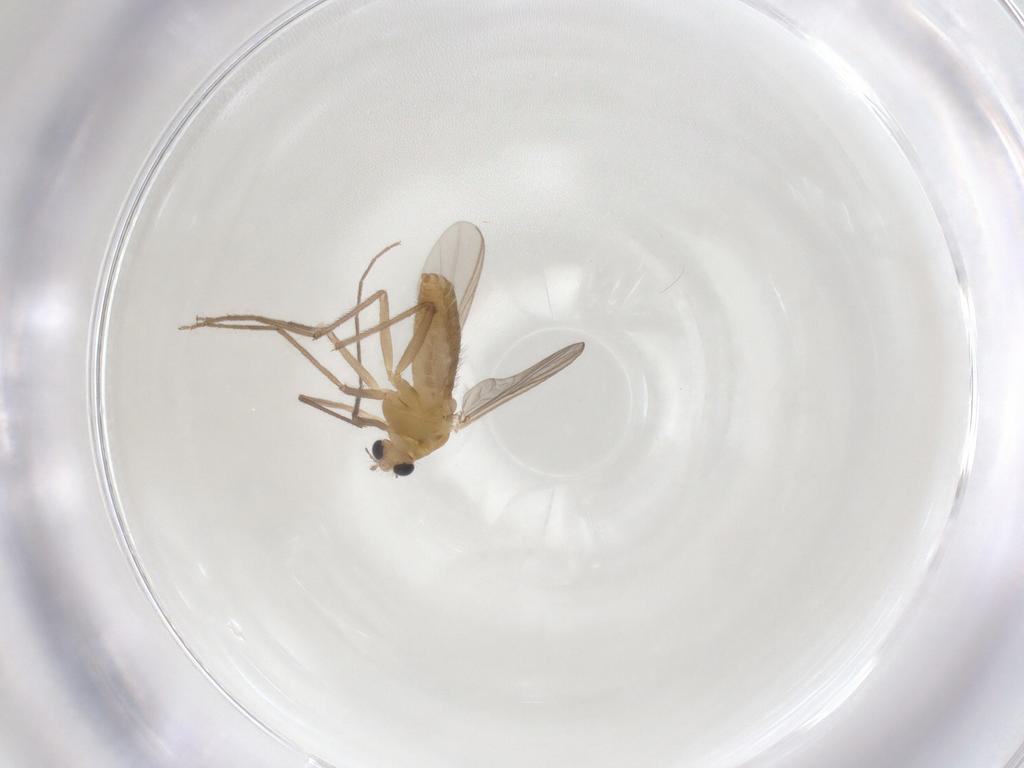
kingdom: Animalia
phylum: Arthropoda
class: Insecta
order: Diptera
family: Chironomidae
